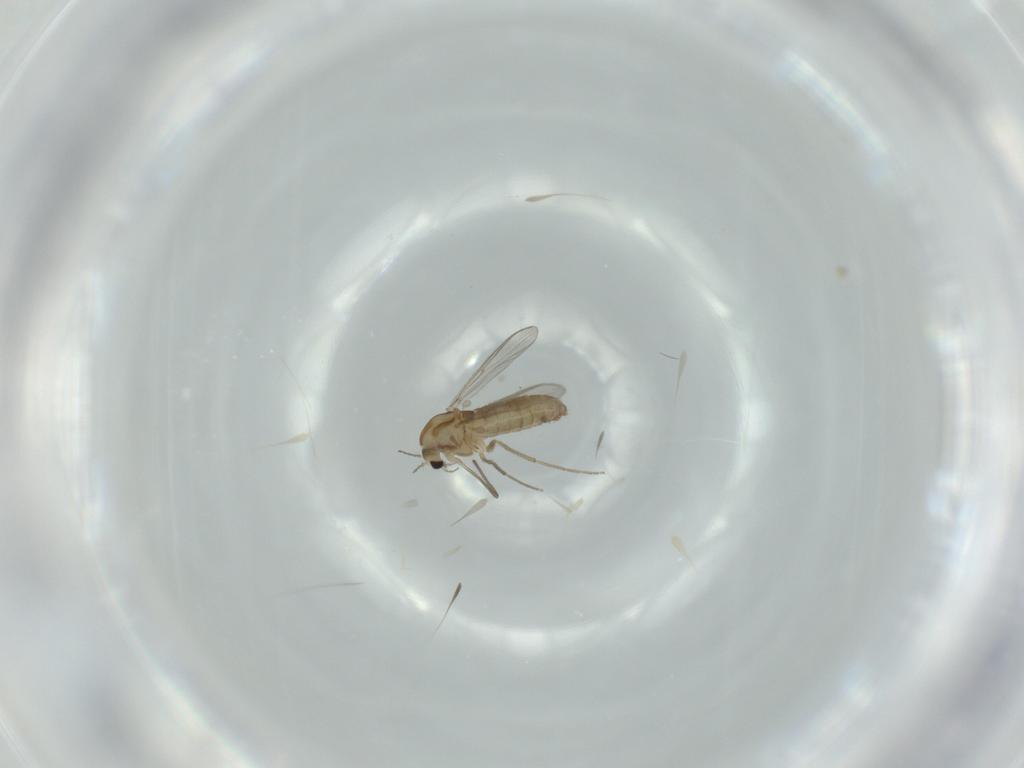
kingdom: Animalia
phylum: Arthropoda
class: Insecta
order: Diptera
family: Chironomidae
